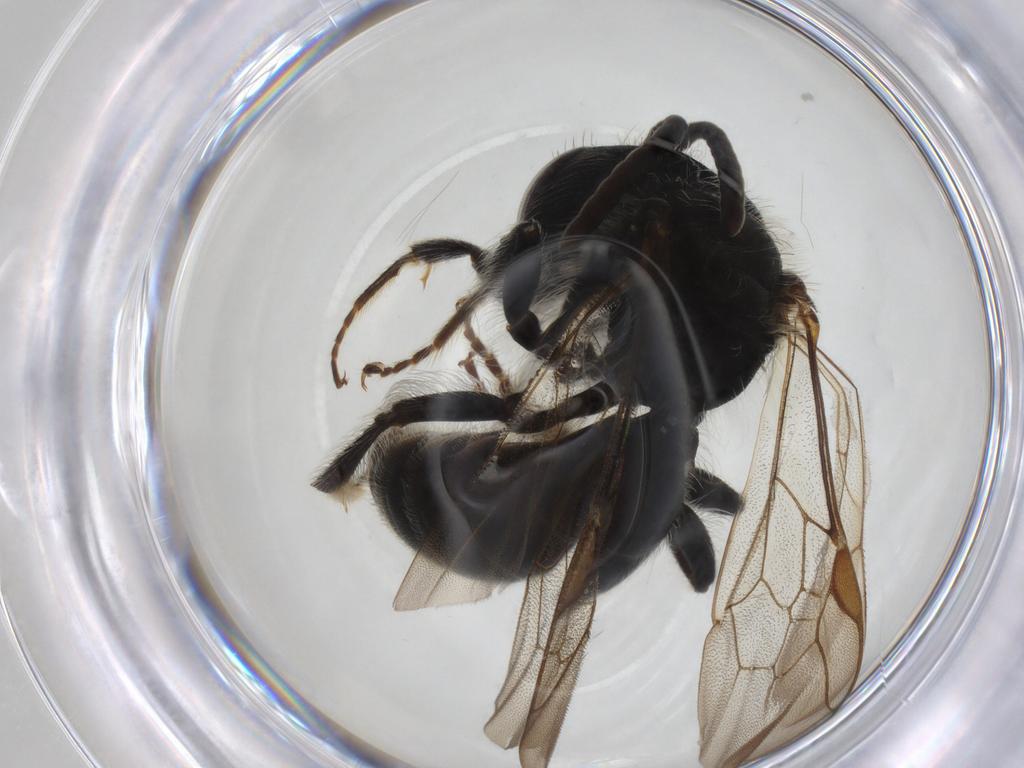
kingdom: Animalia
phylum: Arthropoda
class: Insecta
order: Hymenoptera
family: Andrenidae
